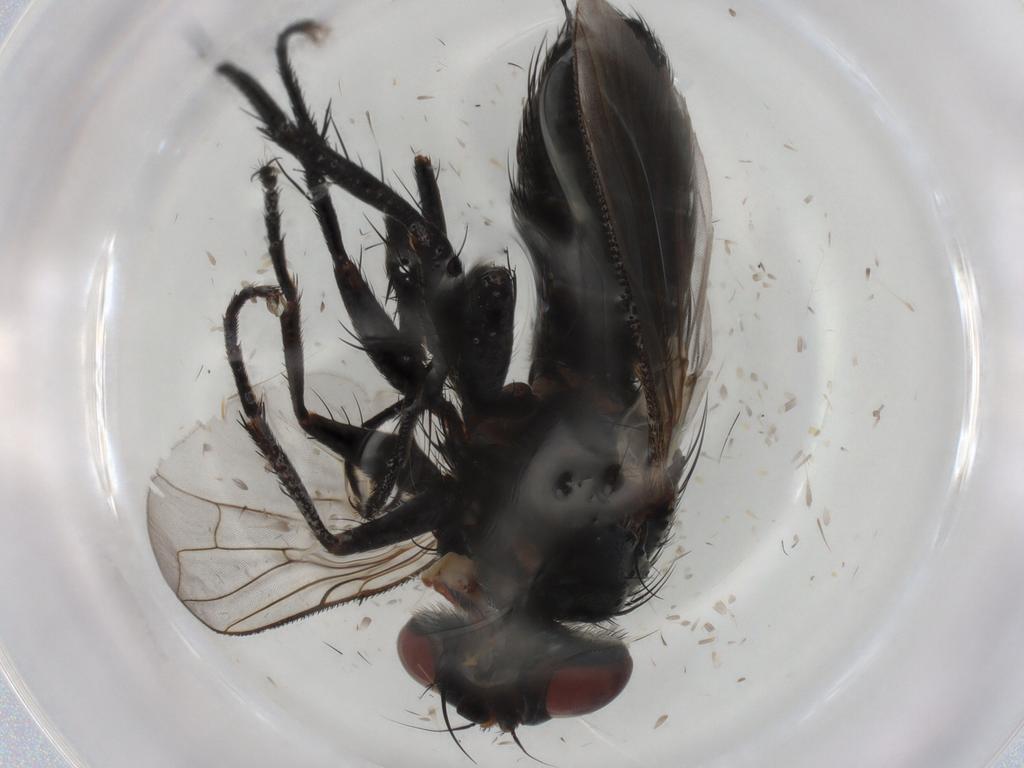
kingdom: Animalia
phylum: Arthropoda
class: Insecta
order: Diptera
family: Tachinidae
